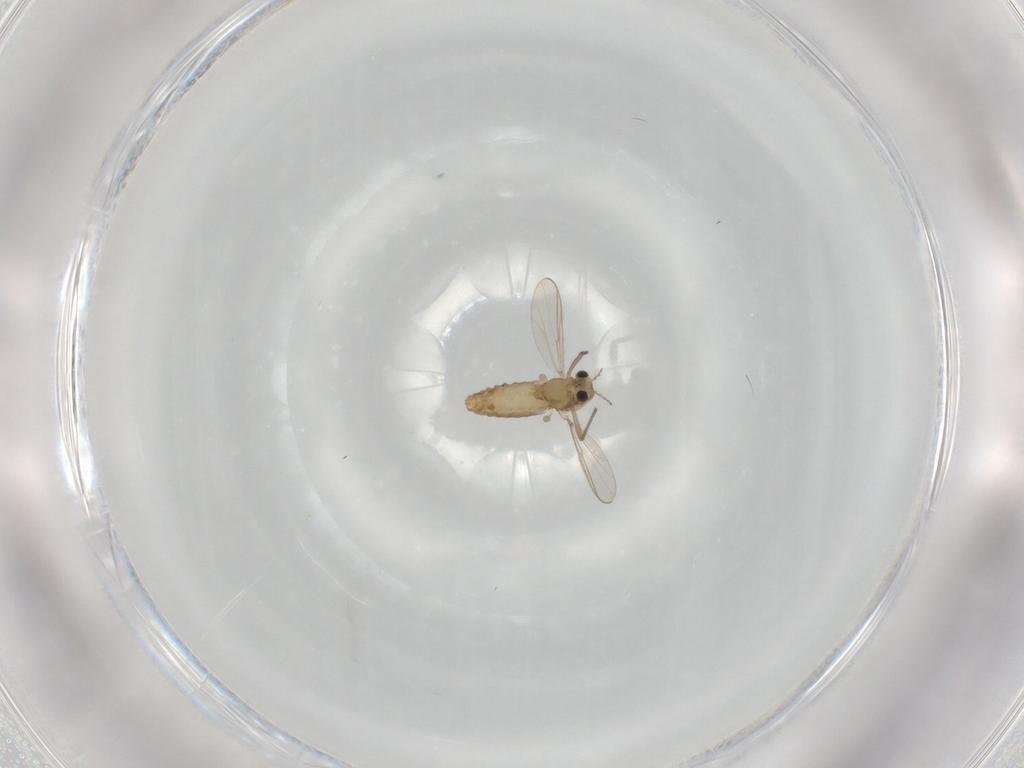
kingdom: Animalia
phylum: Arthropoda
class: Insecta
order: Diptera
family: Chironomidae
